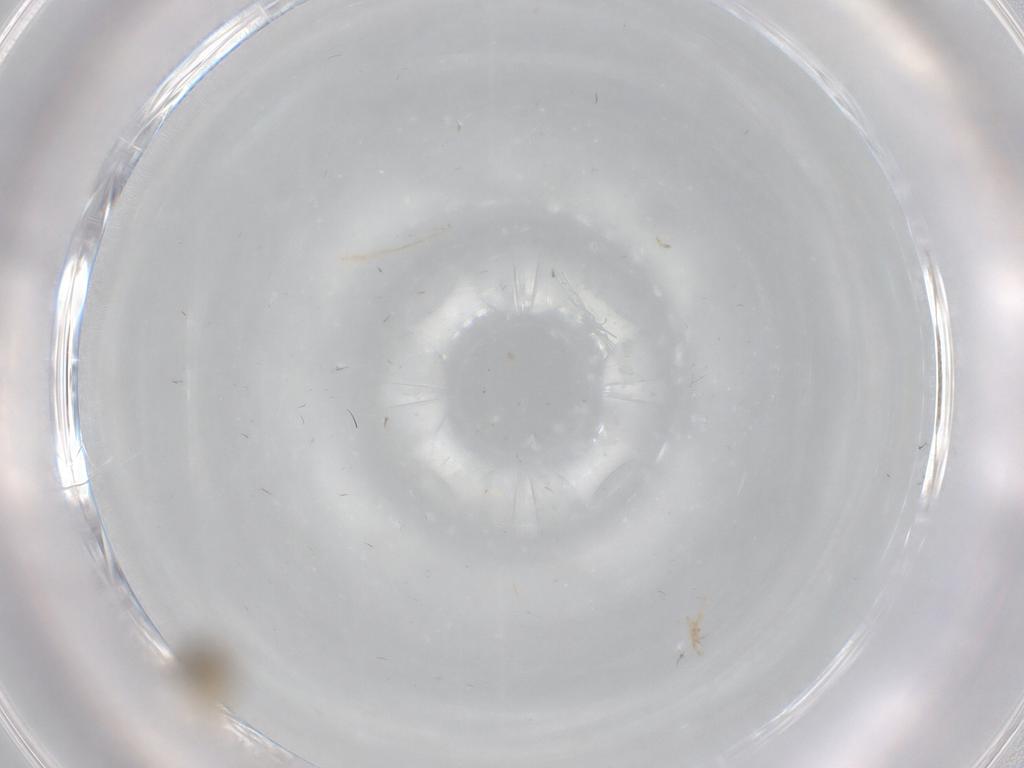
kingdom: Animalia
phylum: Arthropoda
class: Insecta
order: Diptera
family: Cecidomyiidae
